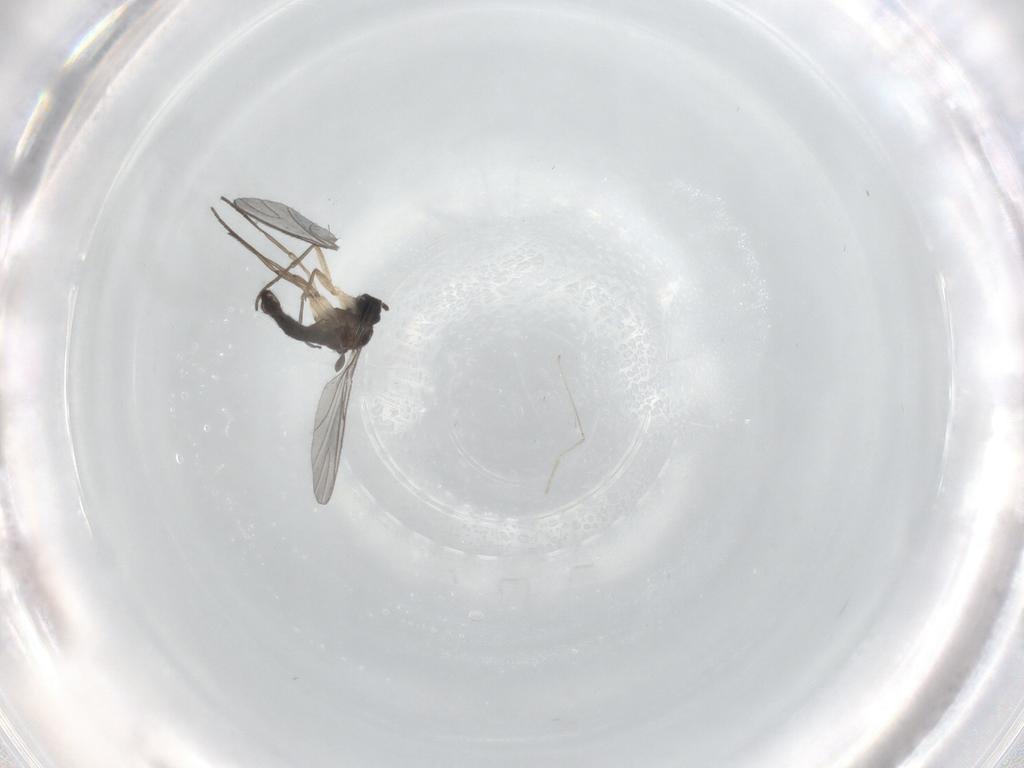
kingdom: Animalia
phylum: Arthropoda
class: Insecta
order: Diptera
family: Sciaridae
